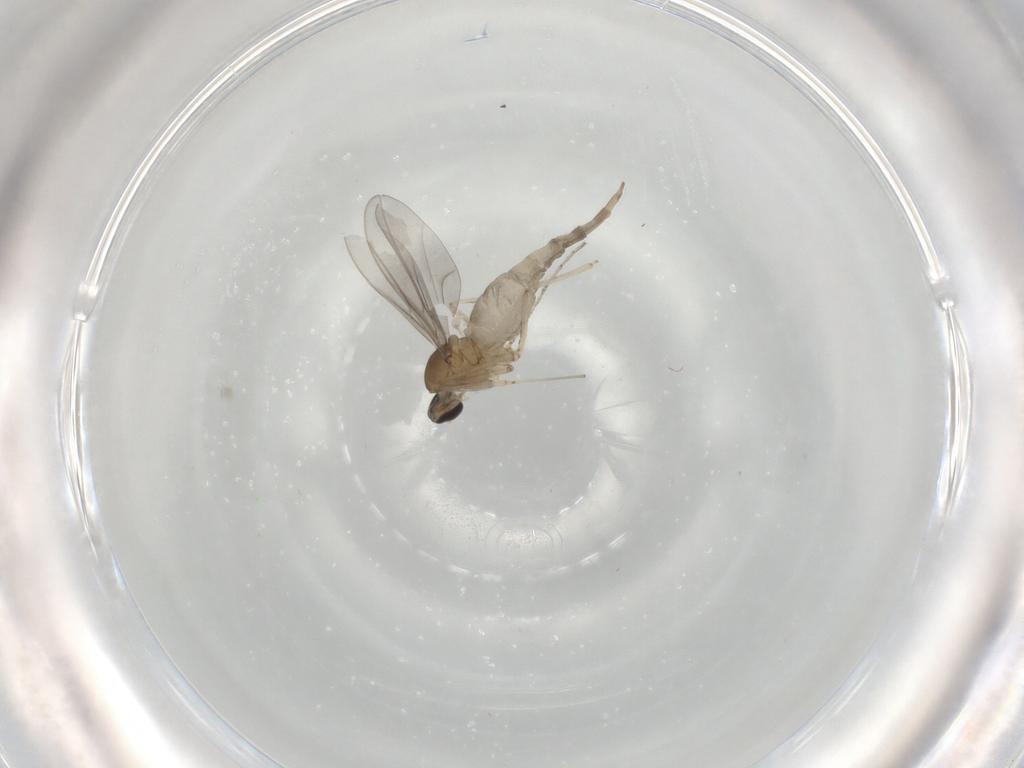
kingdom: Animalia
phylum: Arthropoda
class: Insecta
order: Diptera
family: Cecidomyiidae
